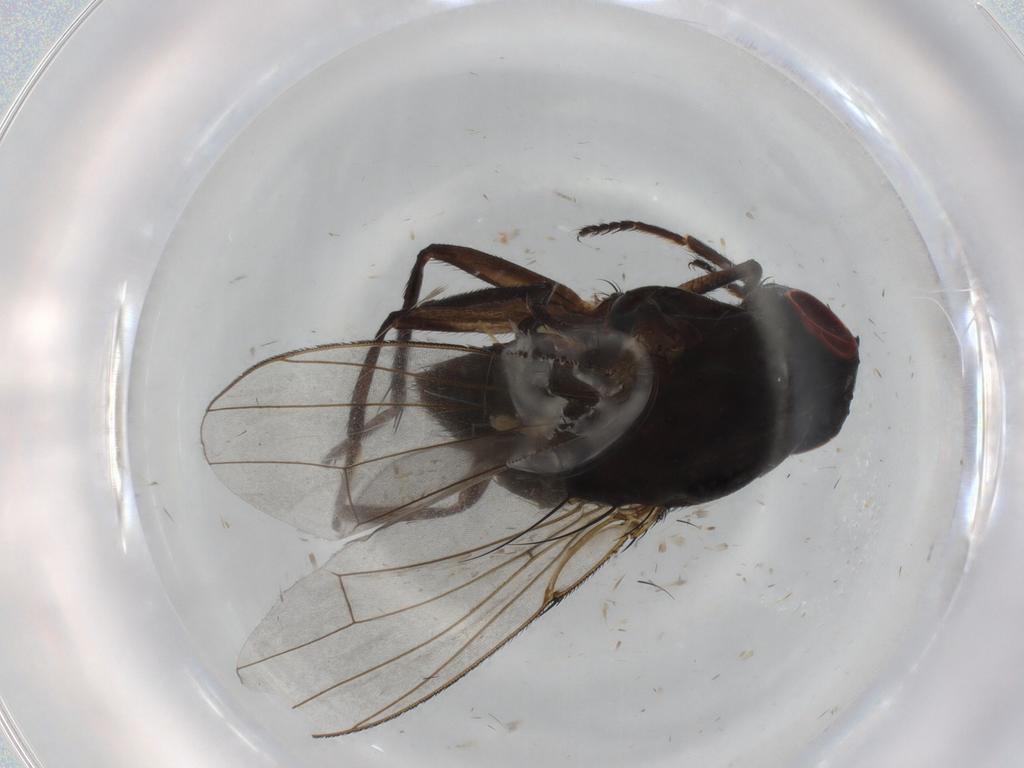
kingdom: Animalia
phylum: Arthropoda
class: Insecta
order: Diptera
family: Ephydridae
